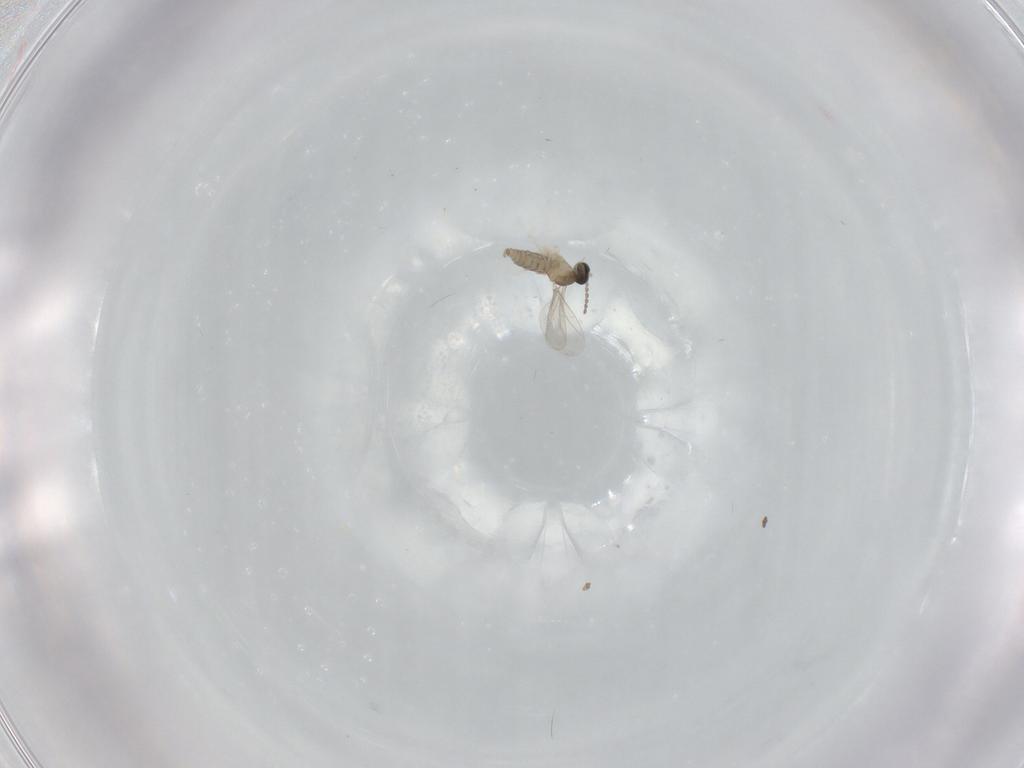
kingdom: Animalia
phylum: Arthropoda
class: Insecta
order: Diptera
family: Cecidomyiidae
